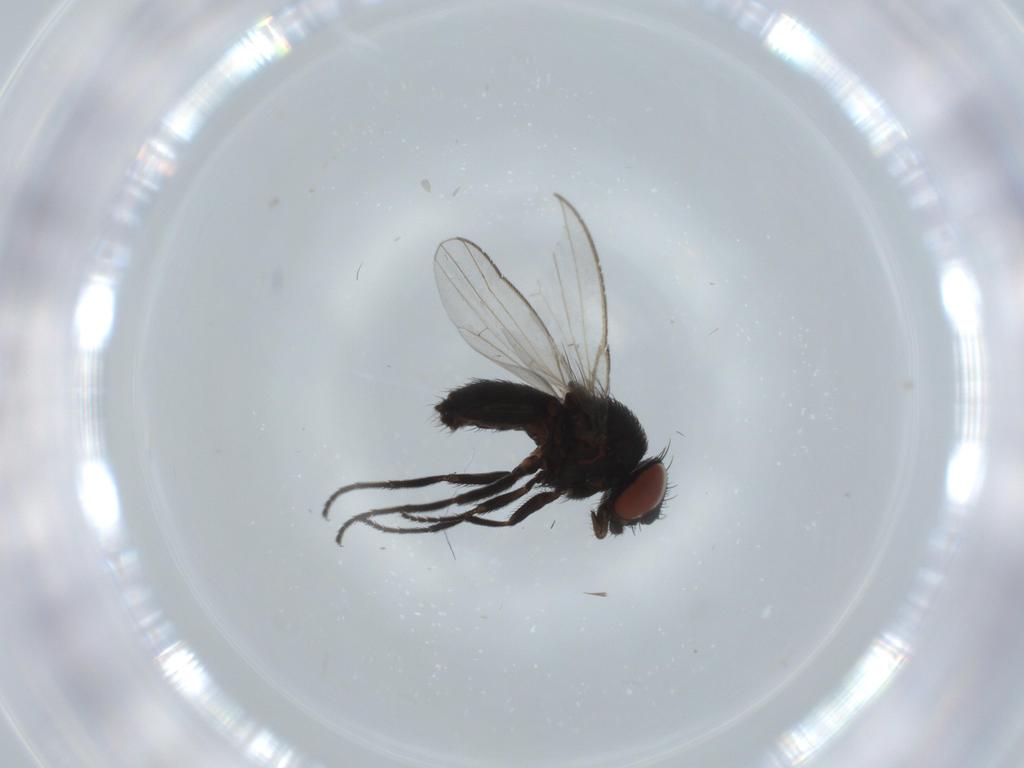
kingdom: Animalia
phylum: Arthropoda
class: Insecta
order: Diptera
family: Milichiidae
